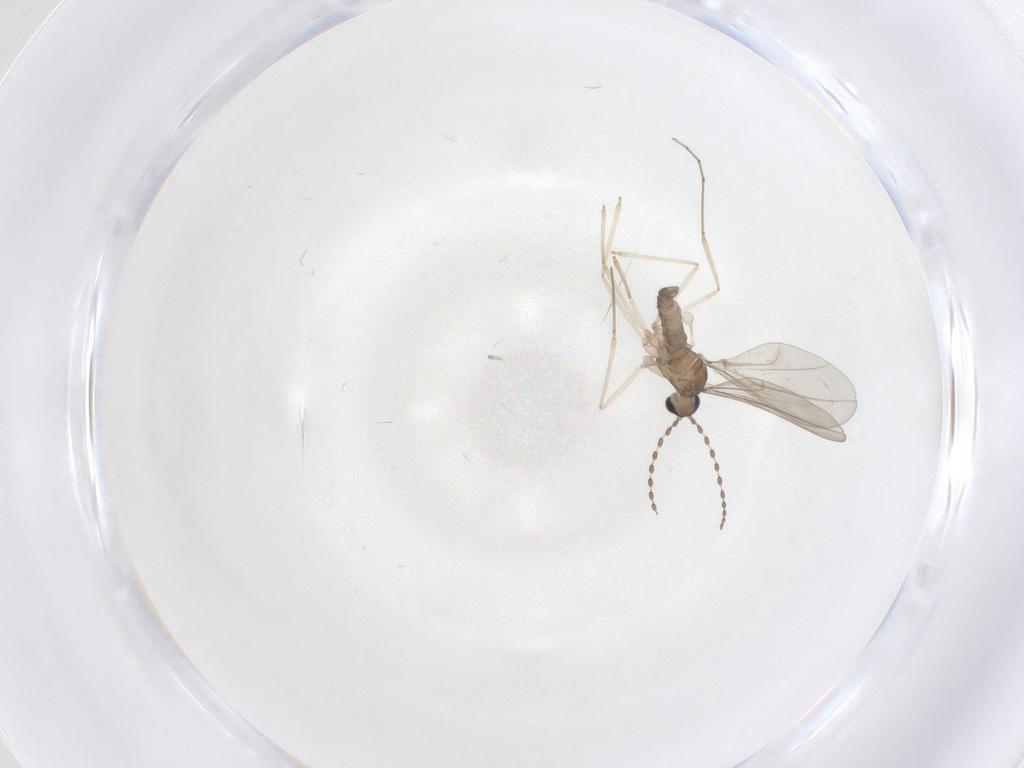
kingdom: Animalia
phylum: Arthropoda
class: Insecta
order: Diptera
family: Cecidomyiidae
